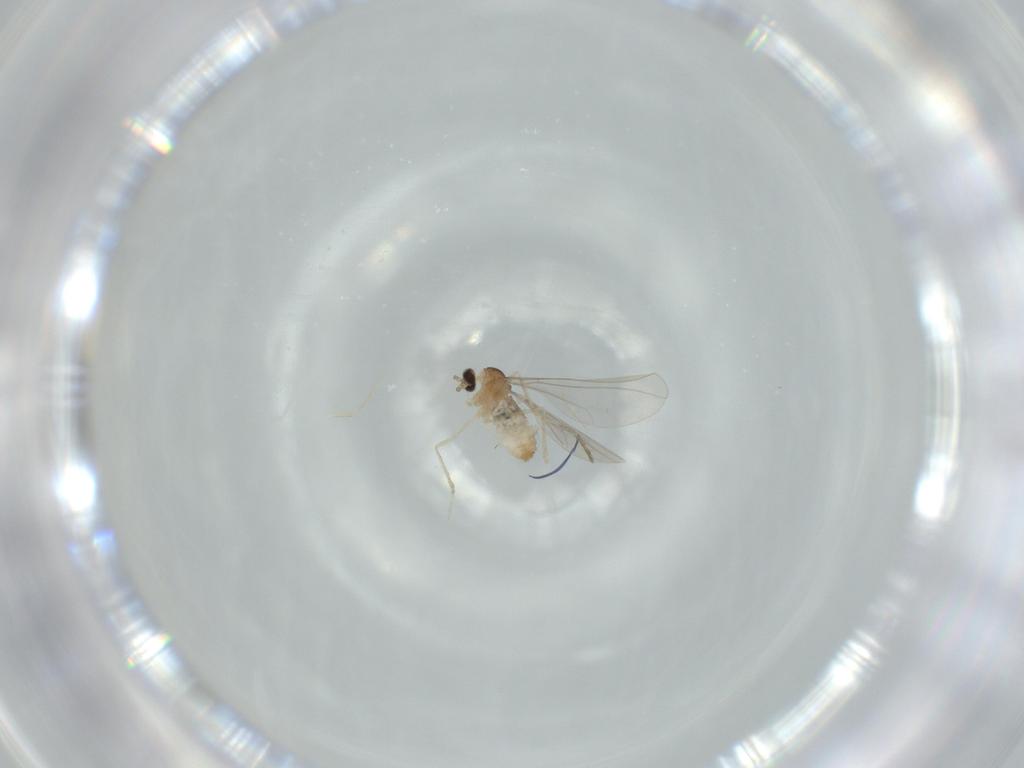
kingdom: Animalia
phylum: Arthropoda
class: Insecta
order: Diptera
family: Cecidomyiidae
